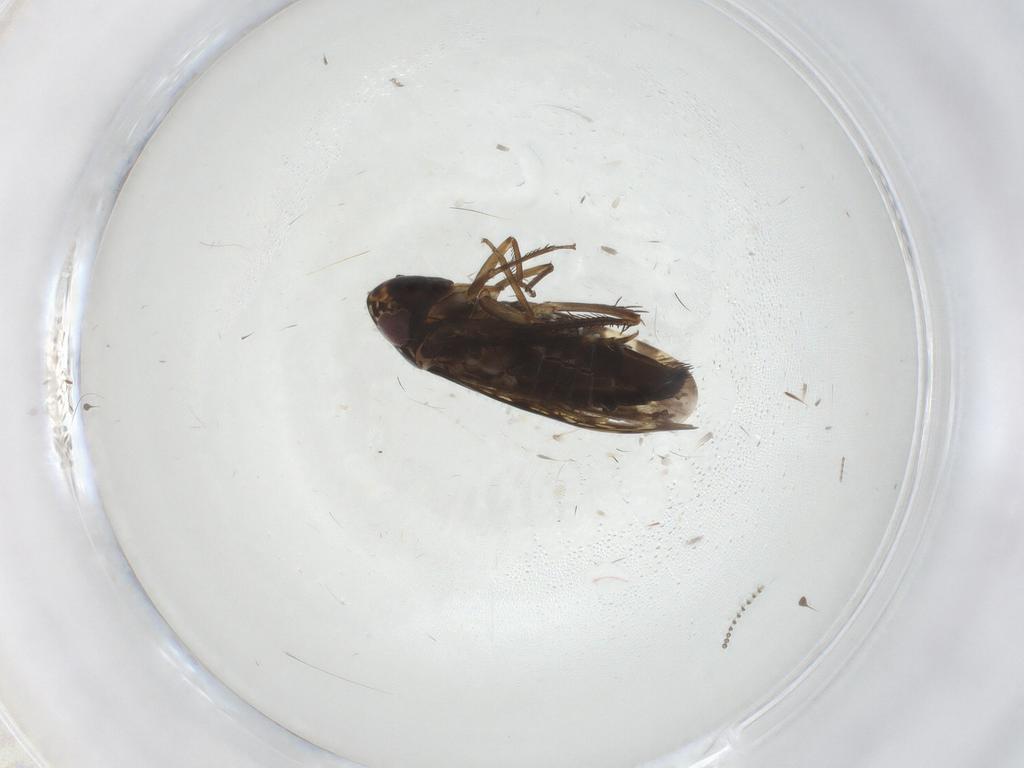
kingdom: Animalia
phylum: Arthropoda
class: Insecta
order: Hemiptera
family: Cicadellidae
